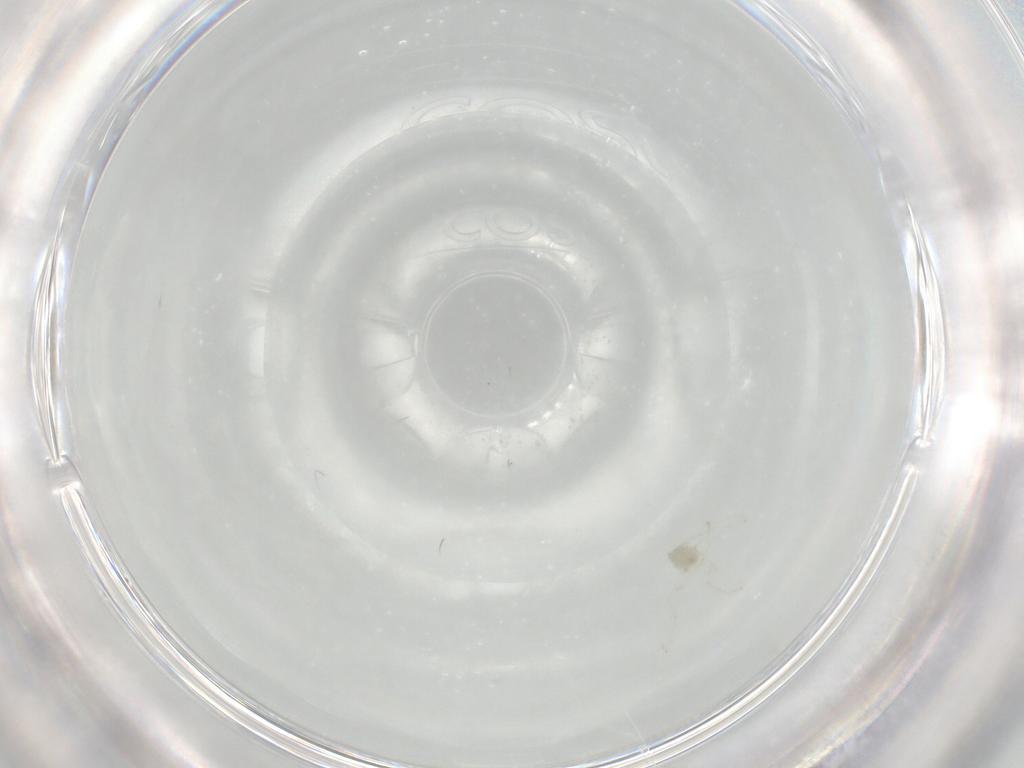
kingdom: Animalia
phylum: Arthropoda
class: Insecta
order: Diptera
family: Cecidomyiidae
